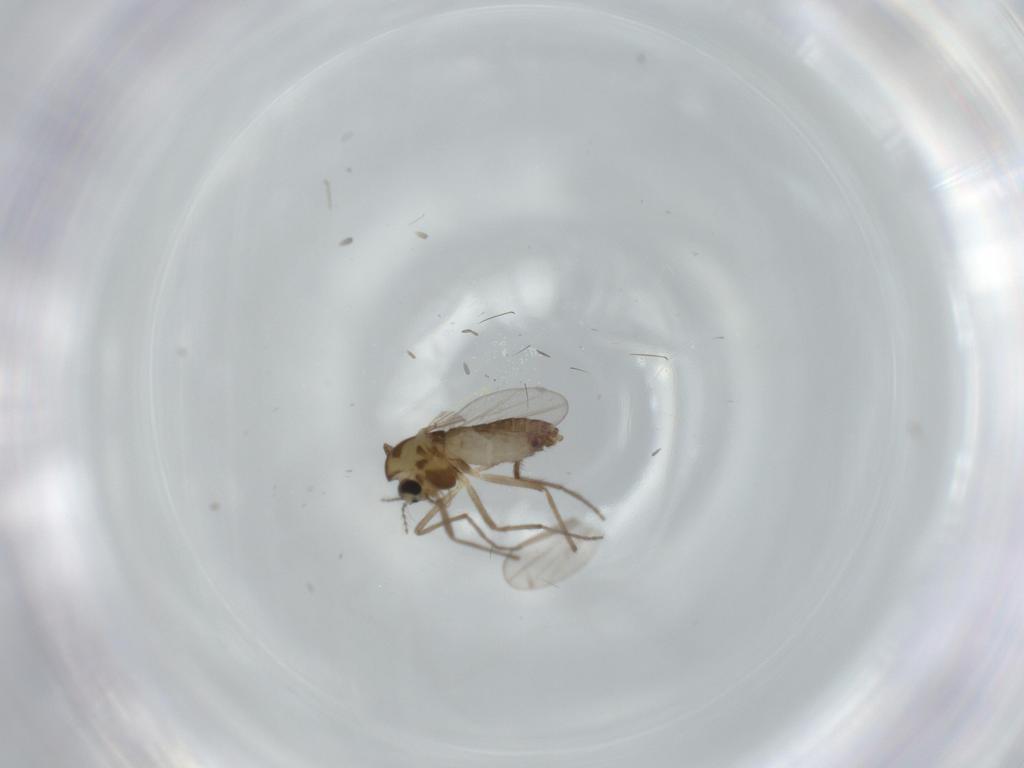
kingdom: Animalia
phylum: Arthropoda
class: Insecta
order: Diptera
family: Chironomidae
